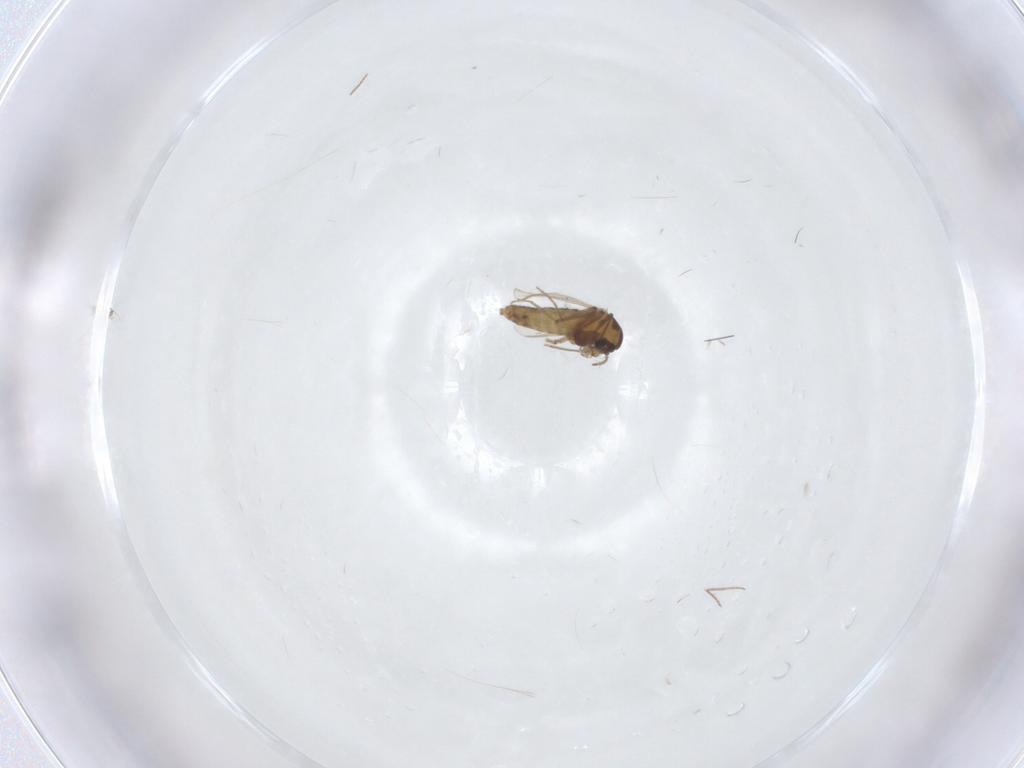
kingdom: Animalia
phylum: Arthropoda
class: Insecta
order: Diptera
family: Chironomidae
